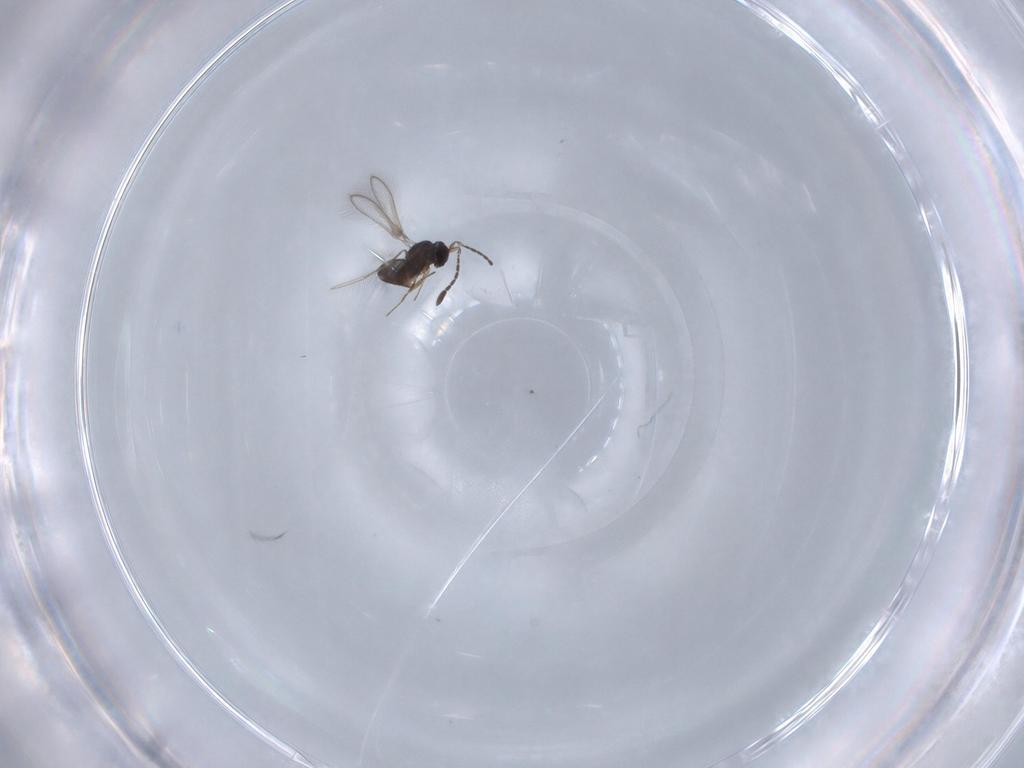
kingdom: Animalia
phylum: Arthropoda
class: Insecta
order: Hymenoptera
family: Mymaridae
